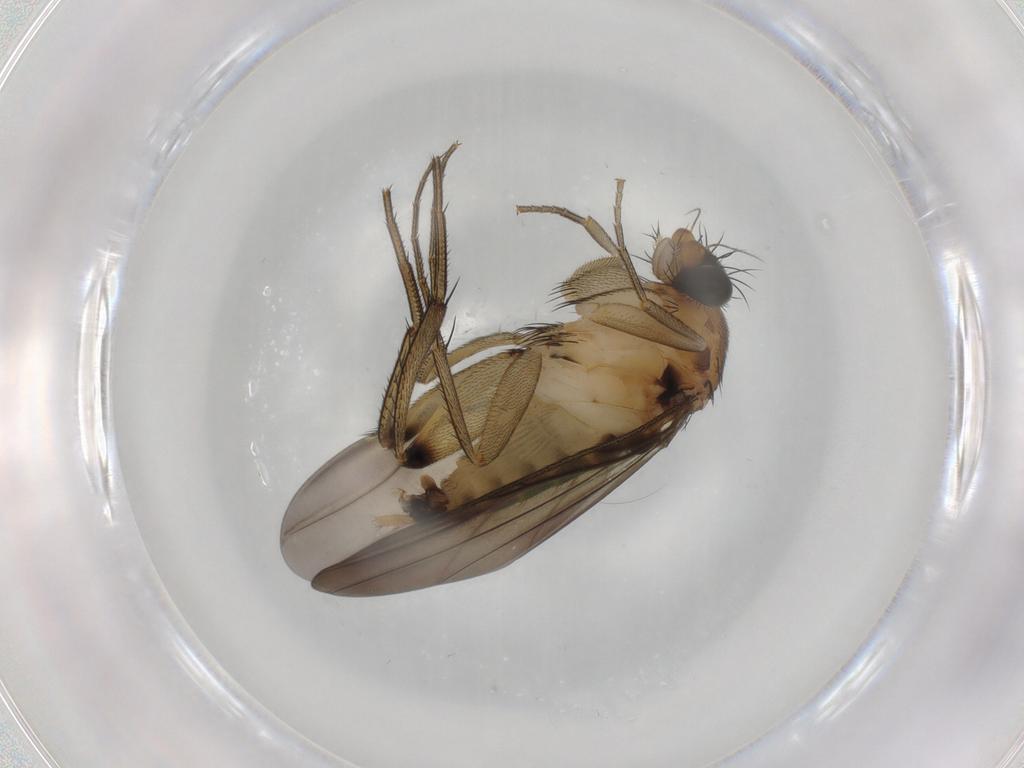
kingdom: Animalia
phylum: Arthropoda
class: Insecta
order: Diptera
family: Chironomidae
